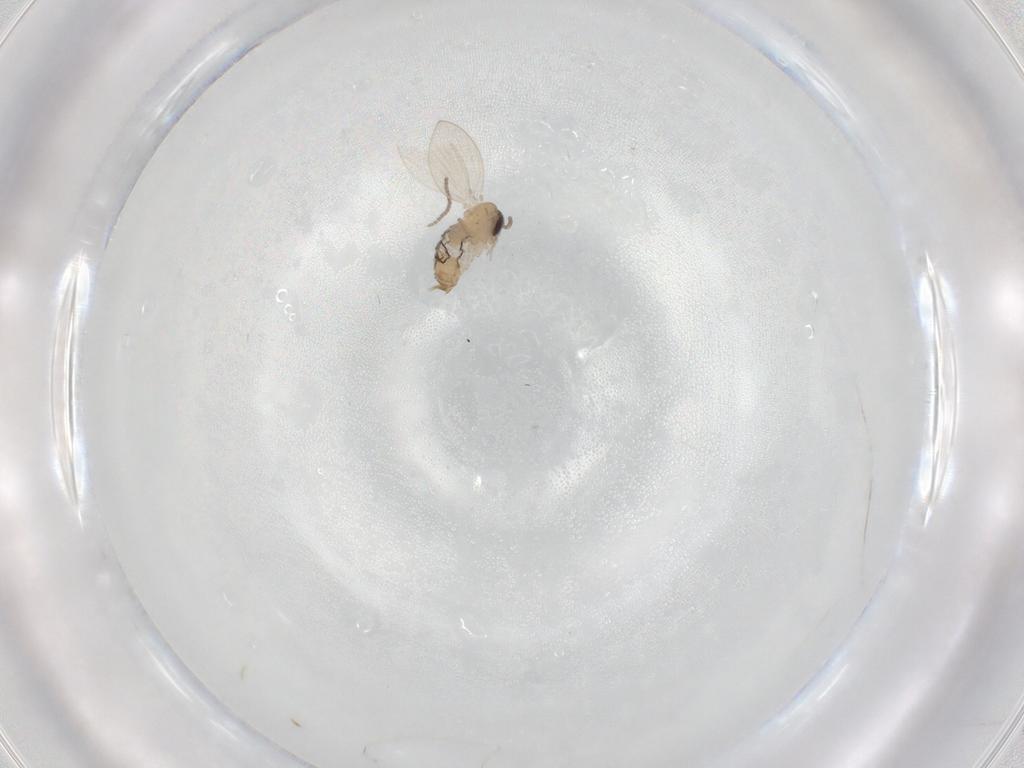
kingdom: Animalia
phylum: Arthropoda
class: Insecta
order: Diptera
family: Psychodidae
